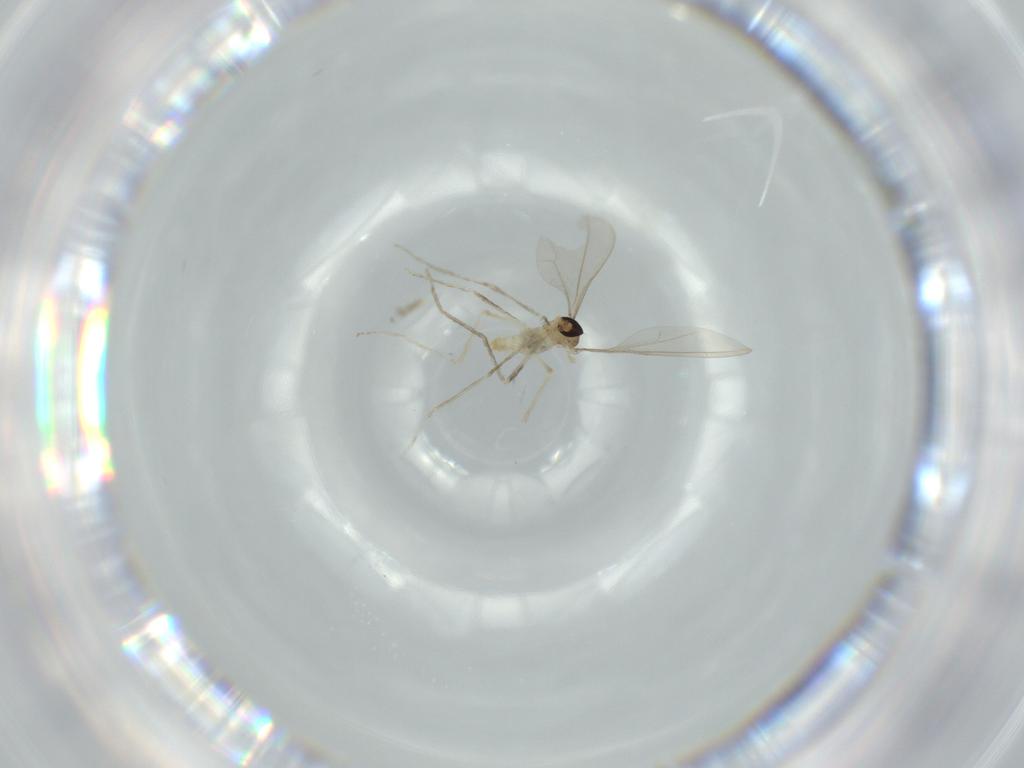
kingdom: Animalia
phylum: Arthropoda
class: Insecta
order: Diptera
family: Cecidomyiidae
